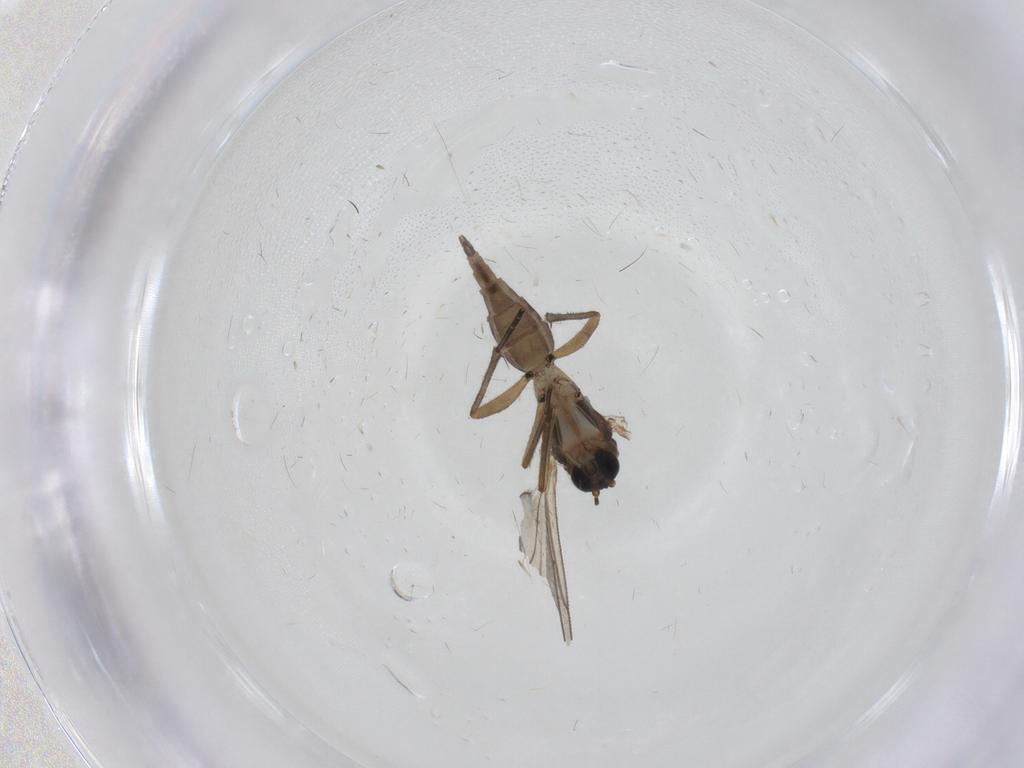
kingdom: Animalia
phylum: Arthropoda
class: Insecta
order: Diptera
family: Sciaridae
